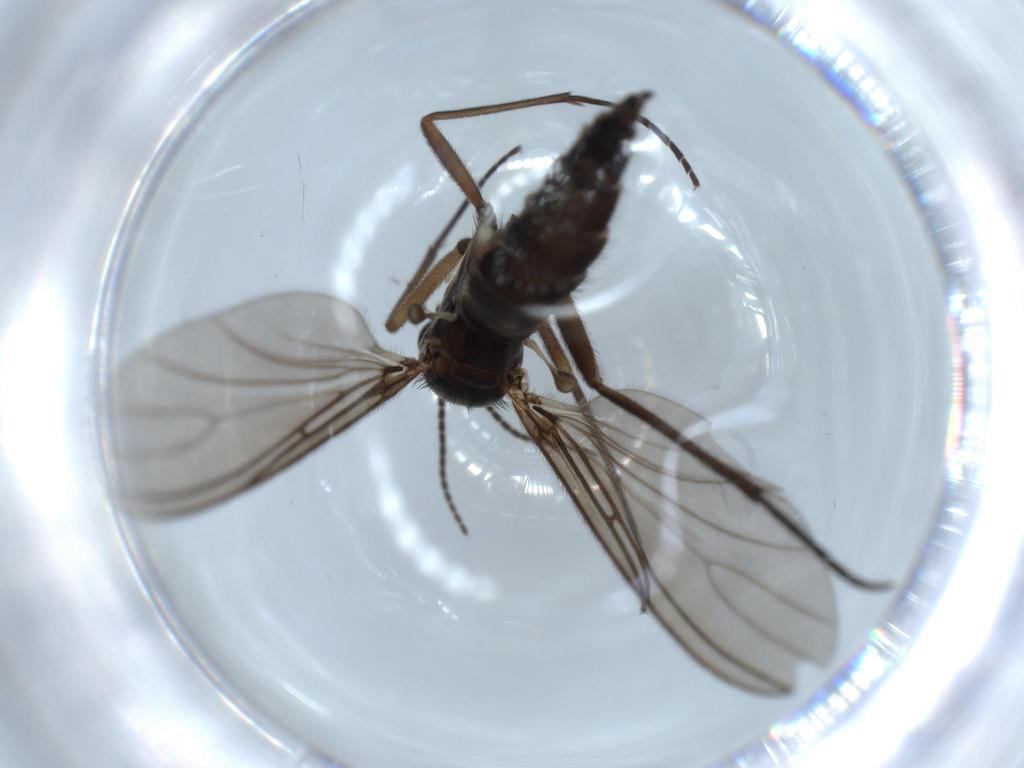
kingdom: Animalia
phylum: Arthropoda
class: Insecta
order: Diptera
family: Sciaridae
